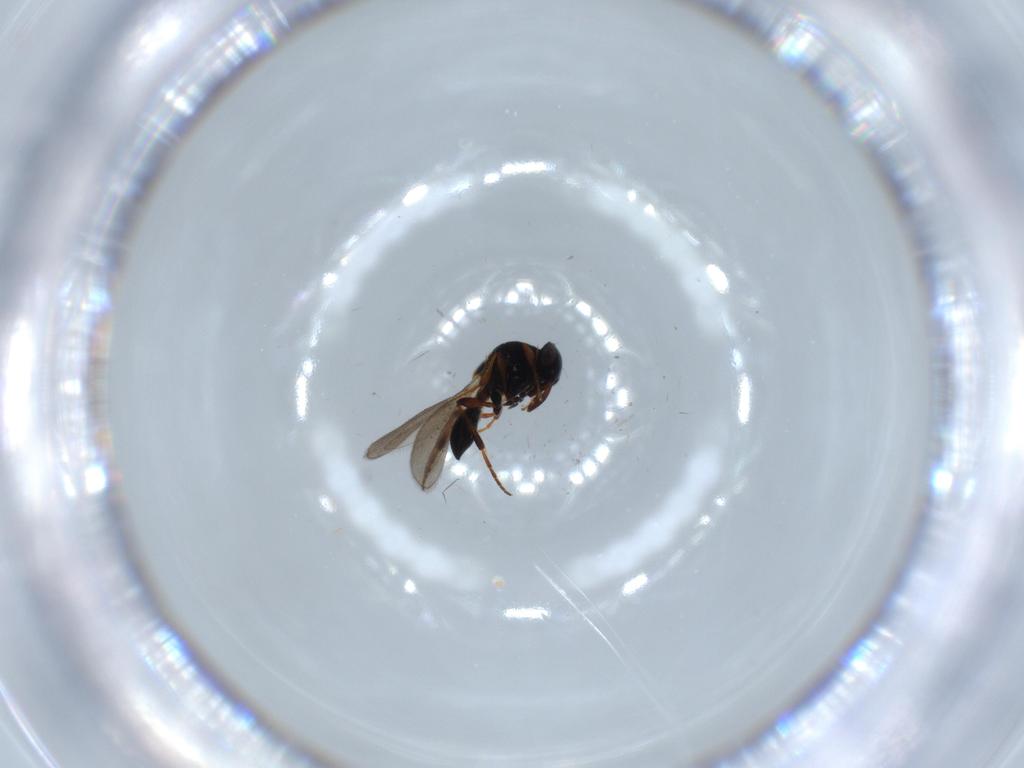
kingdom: Animalia
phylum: Arthropoda
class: Insecta
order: Hymenoptera
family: Platygastridae
